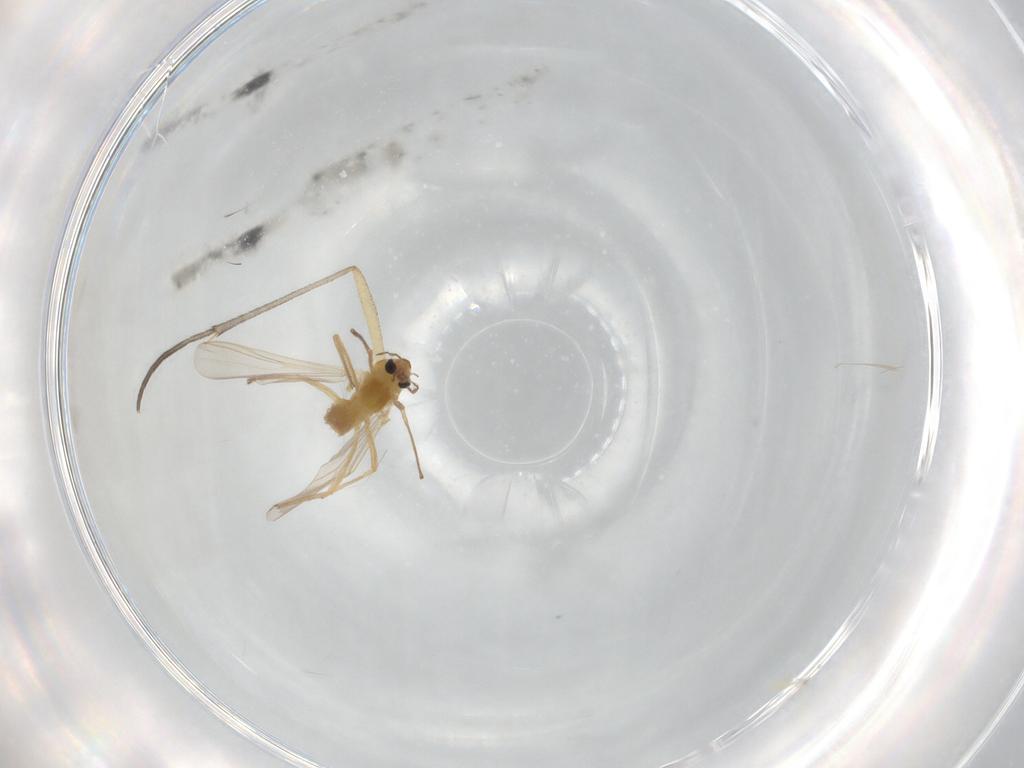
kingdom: Animalia
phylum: Arthropoda
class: Insecta
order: Diptera
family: Chironomidae
